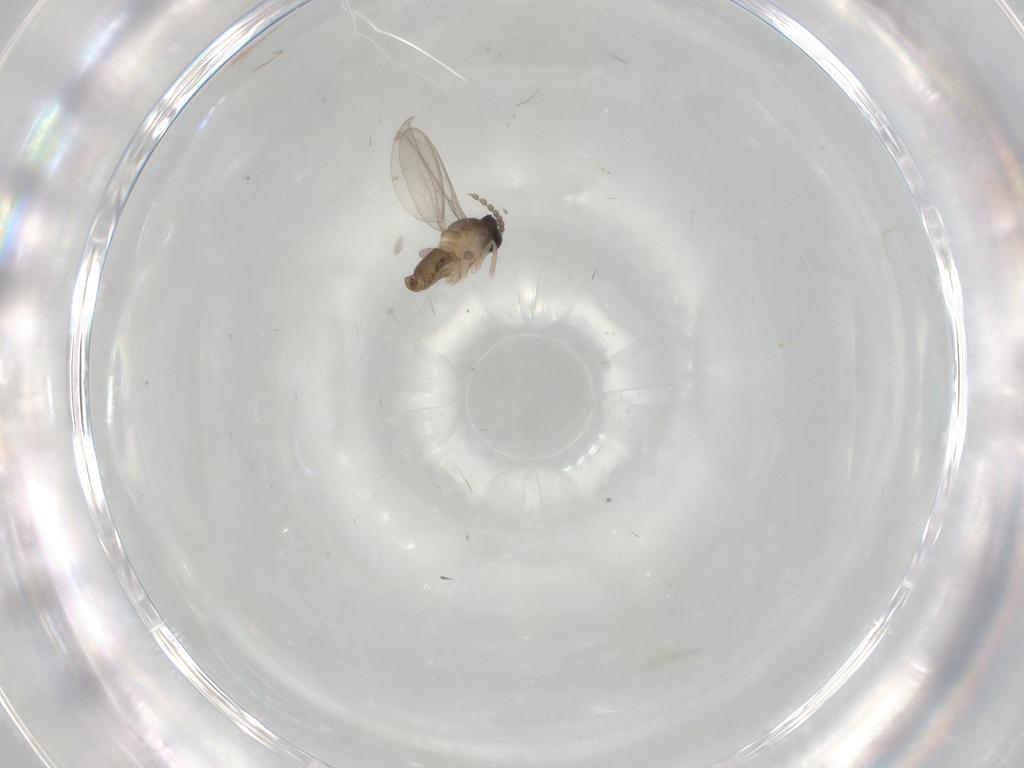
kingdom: Animalia
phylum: Arthropoda
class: Insecta
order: Diptera
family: Cecidomyiidae
